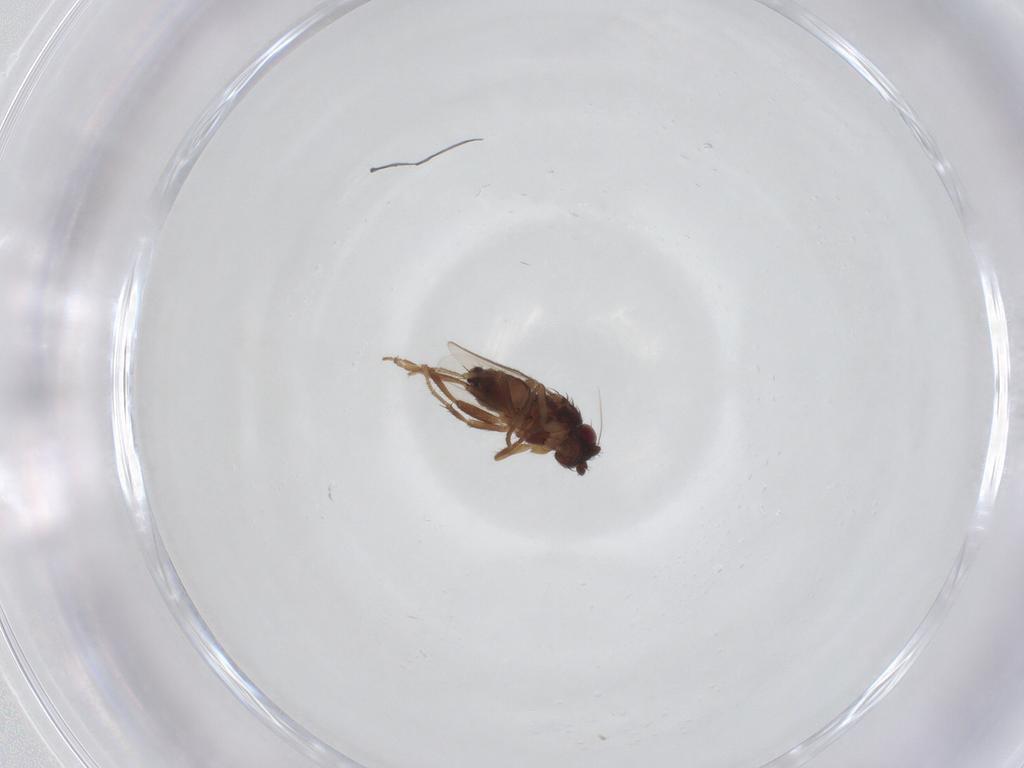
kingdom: Animalia
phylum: Arthropoda
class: Insecta
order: Diptera
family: Sphaeroceridae
